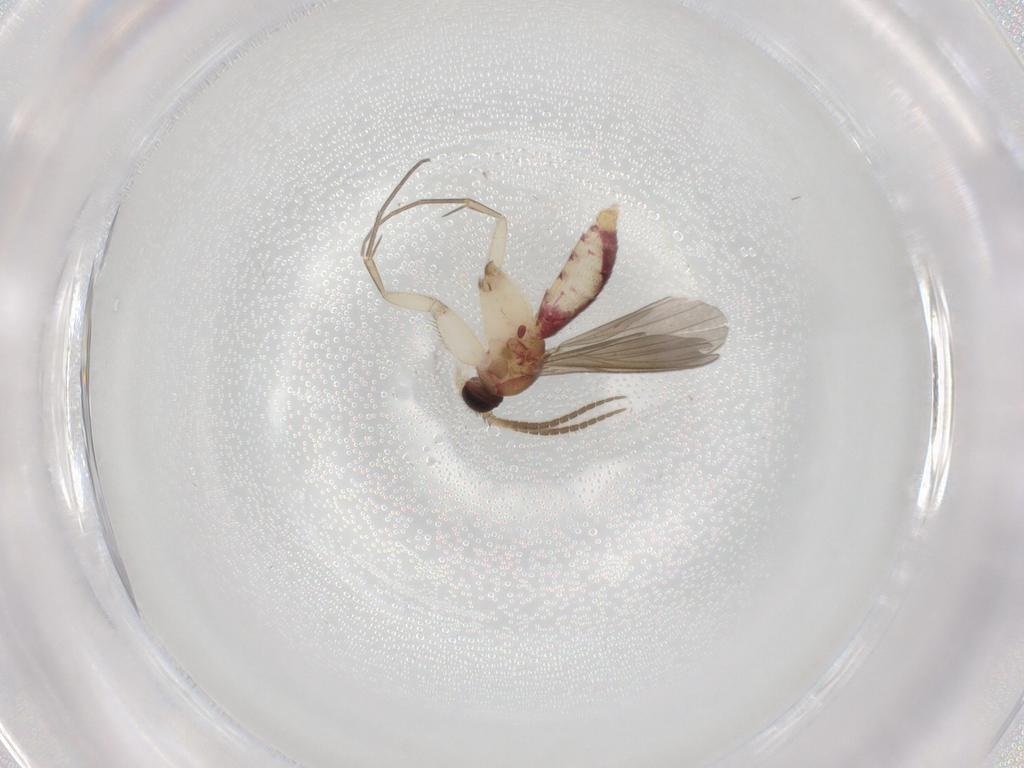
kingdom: Animalia
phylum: Arthropoda
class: Insecta
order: Diptera
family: Mycetophilidae
